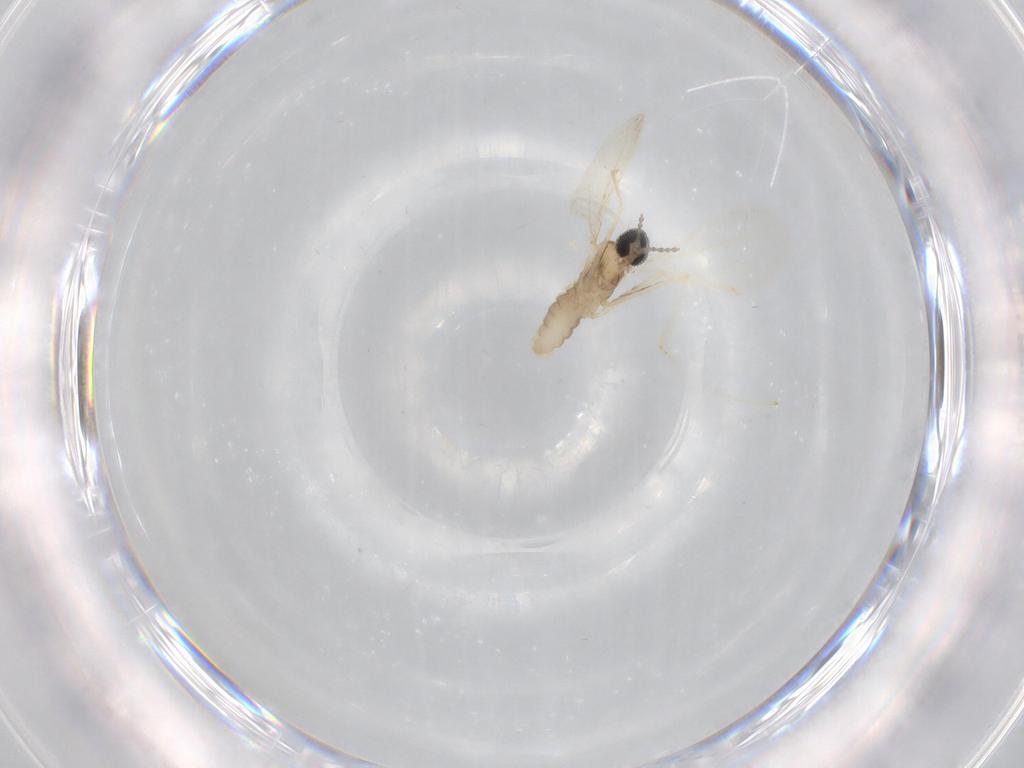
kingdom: Animalia
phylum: Arthropoda
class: Insecta
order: Diptera
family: Cecidomyiidae
